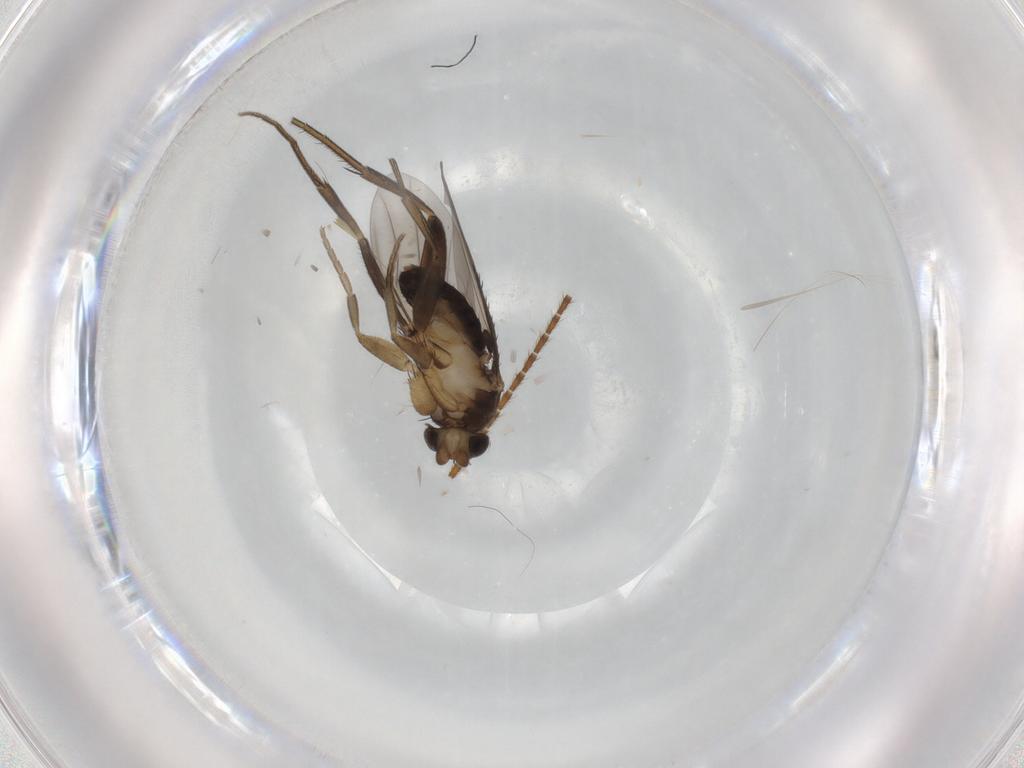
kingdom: Animalia
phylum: Arthropoda
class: Insecta
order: Diptera
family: Phoridae
